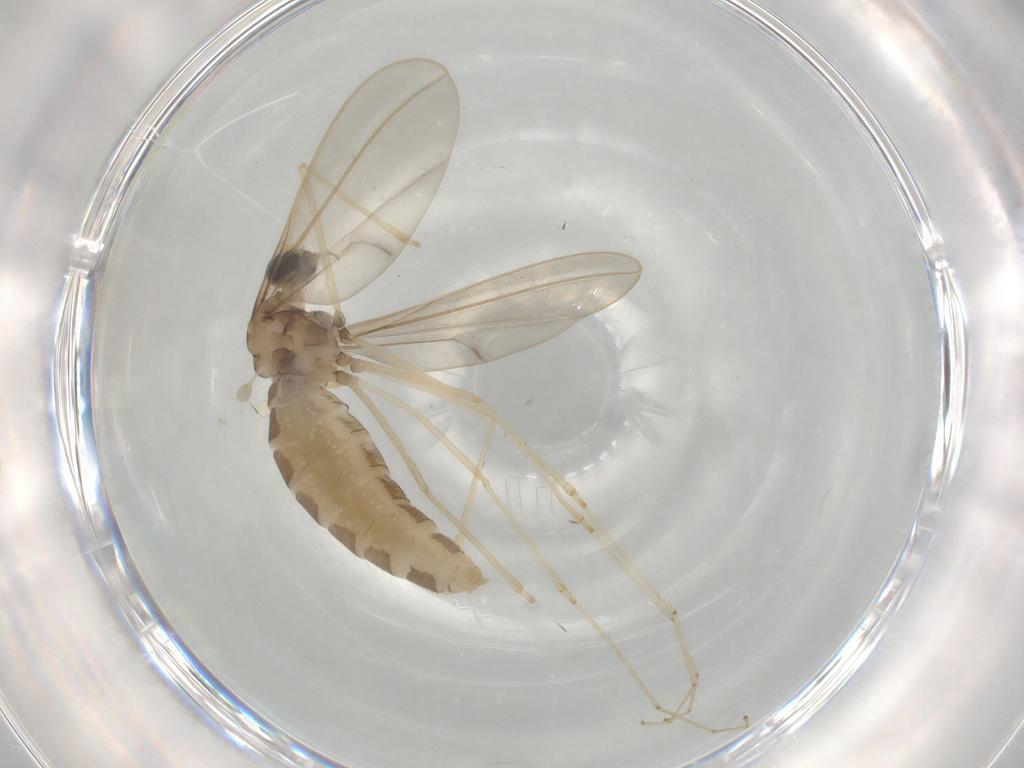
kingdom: Animalia
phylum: Arthropoda
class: Insecta
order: Diptera
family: Cecidomyiidae
